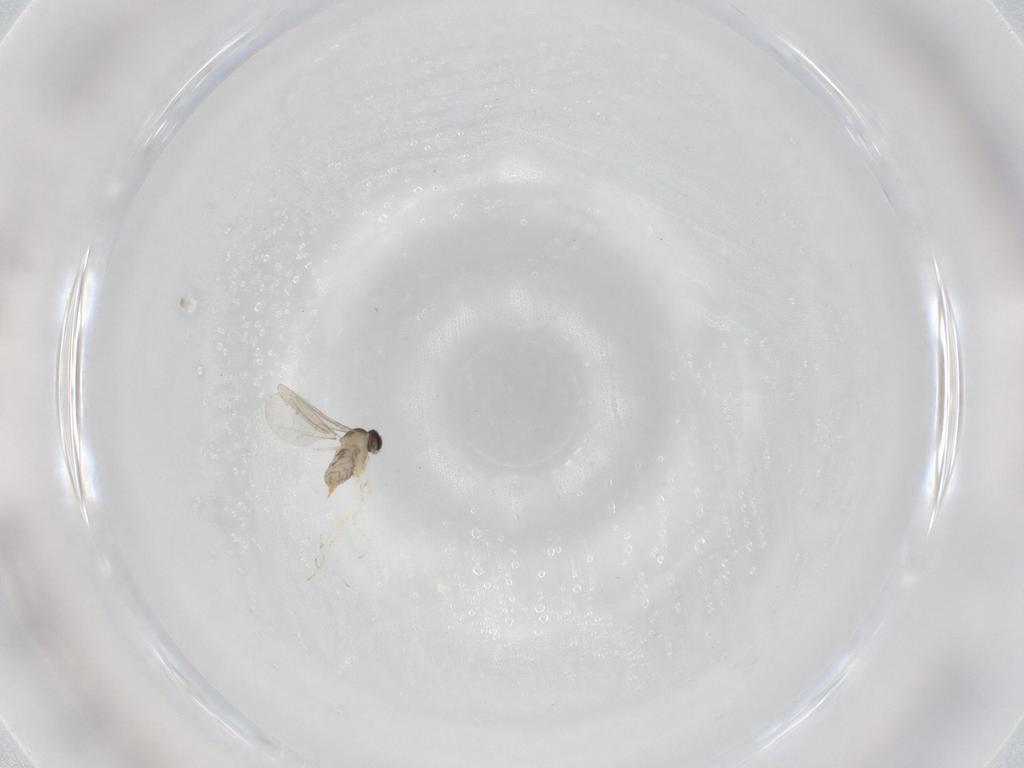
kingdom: Animalia
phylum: Arthropoda
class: Insecta
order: Diptera
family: Cecidomyiidae
